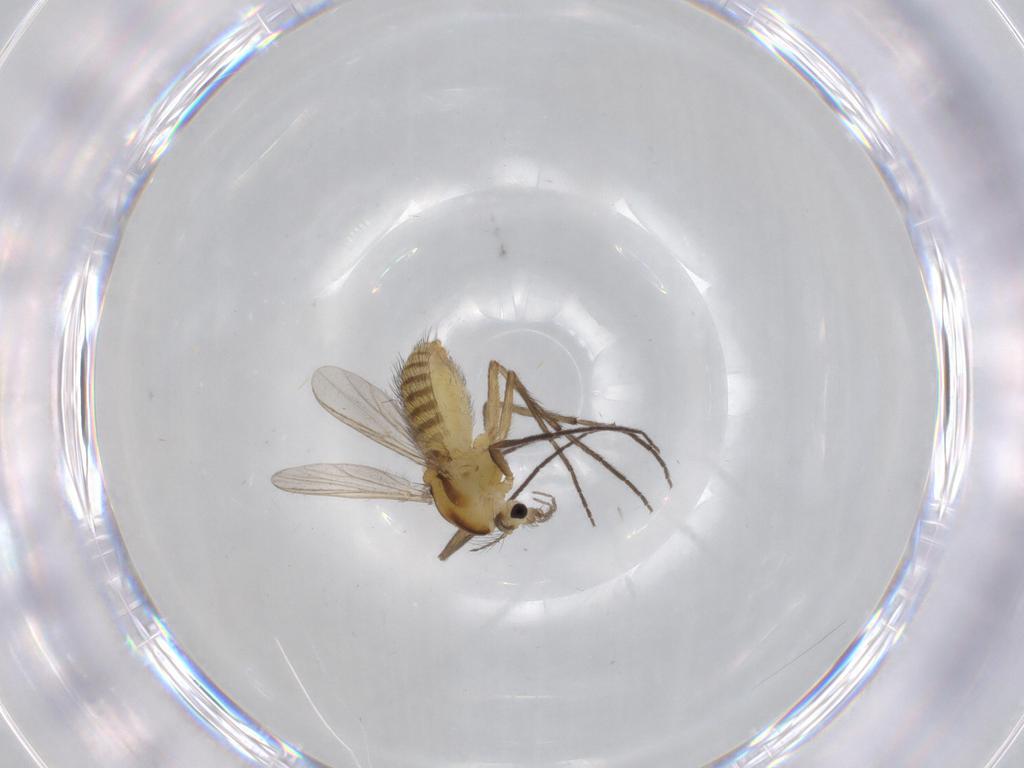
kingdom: Animalia
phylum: Arthropoda
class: Insecta
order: Diptera
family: Chironomidae
